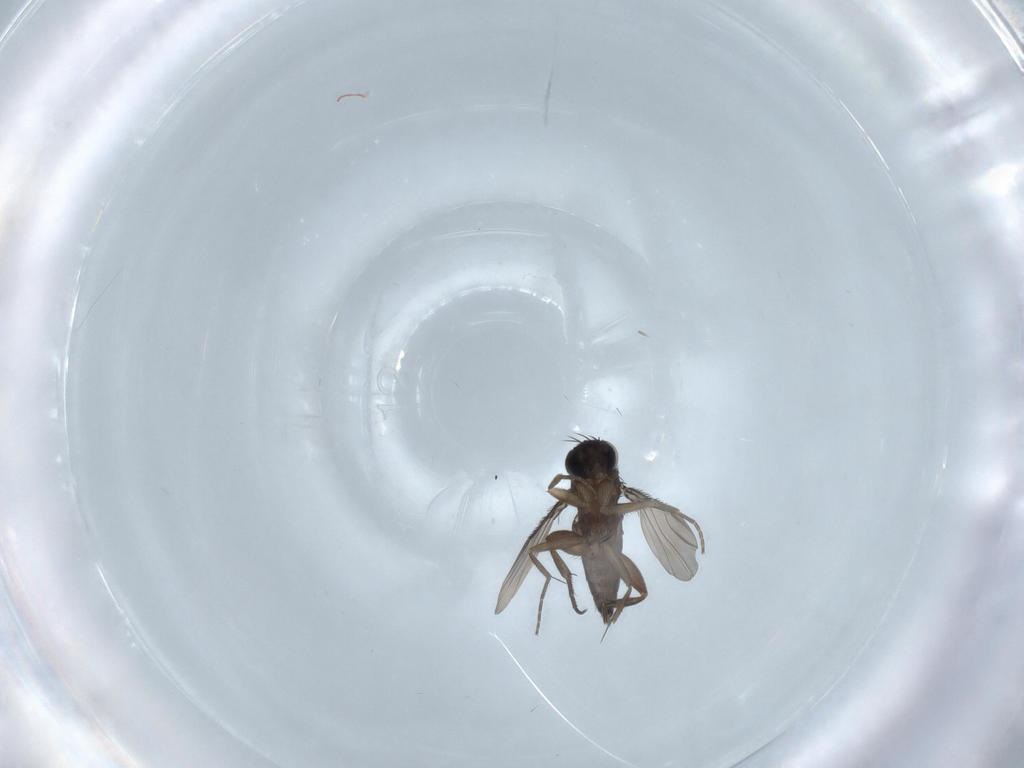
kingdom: Animalia
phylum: Arthropoda
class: Insecta
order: Diptera
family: Phoridae
